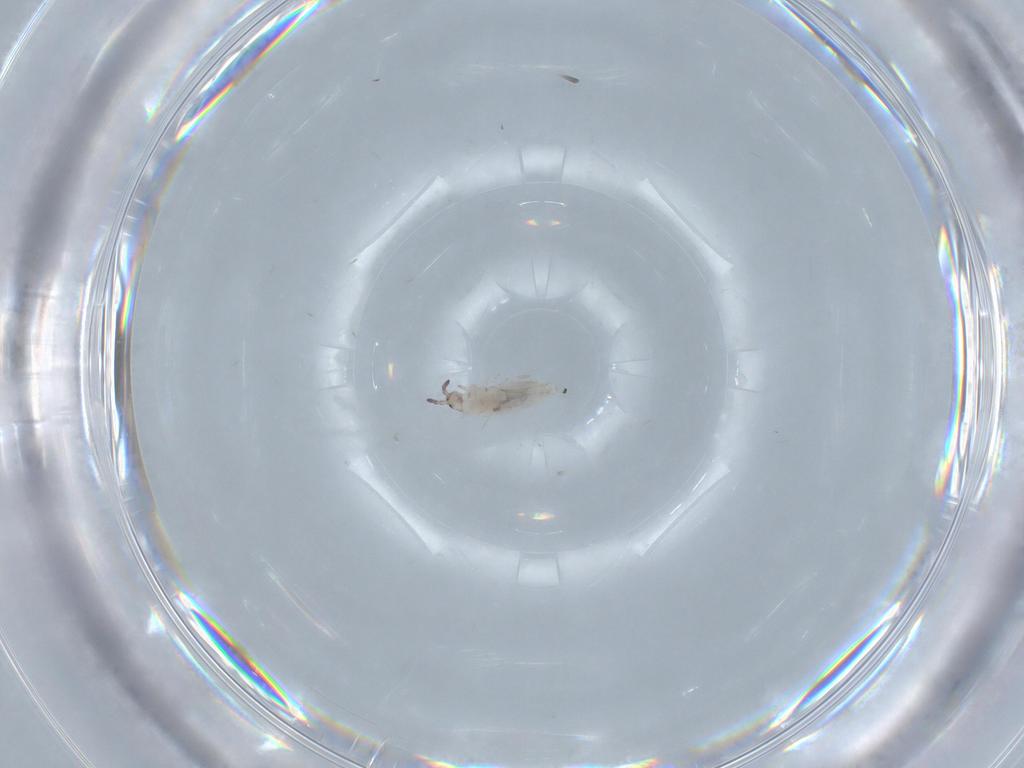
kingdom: Animalia
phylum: Arthropoda
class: Collembola
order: Entomobryomorpha
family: Entomobryidae
